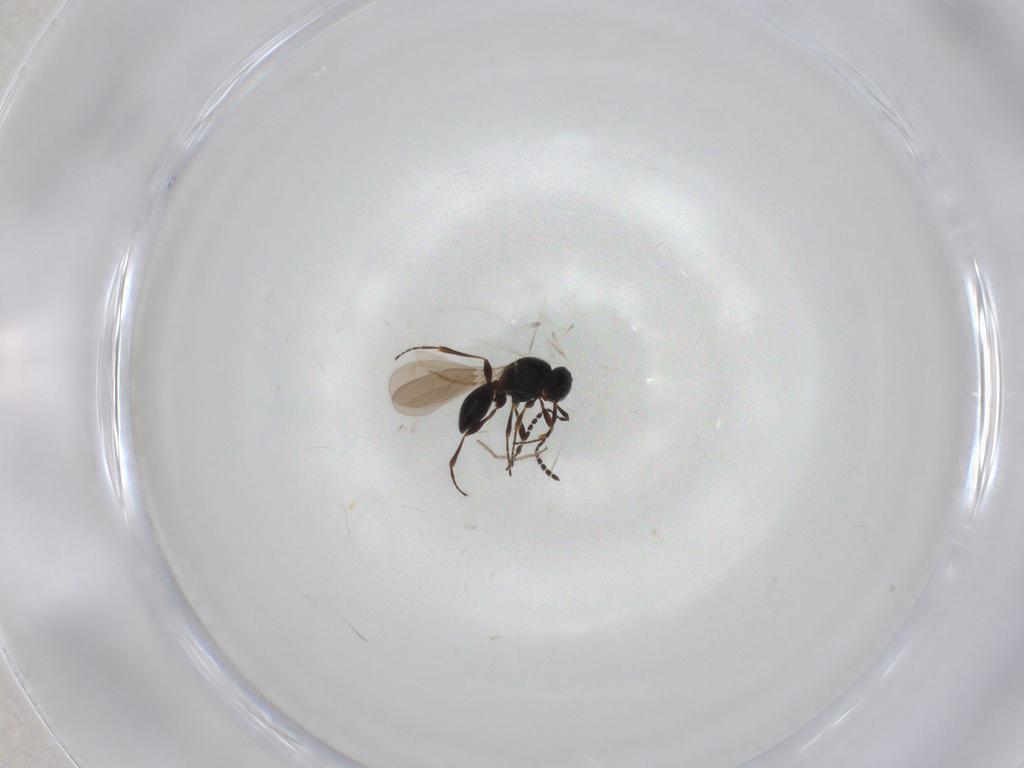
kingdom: Animalia
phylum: Arthropoda
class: Insecta
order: Hymenoptera
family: Platygastridae
